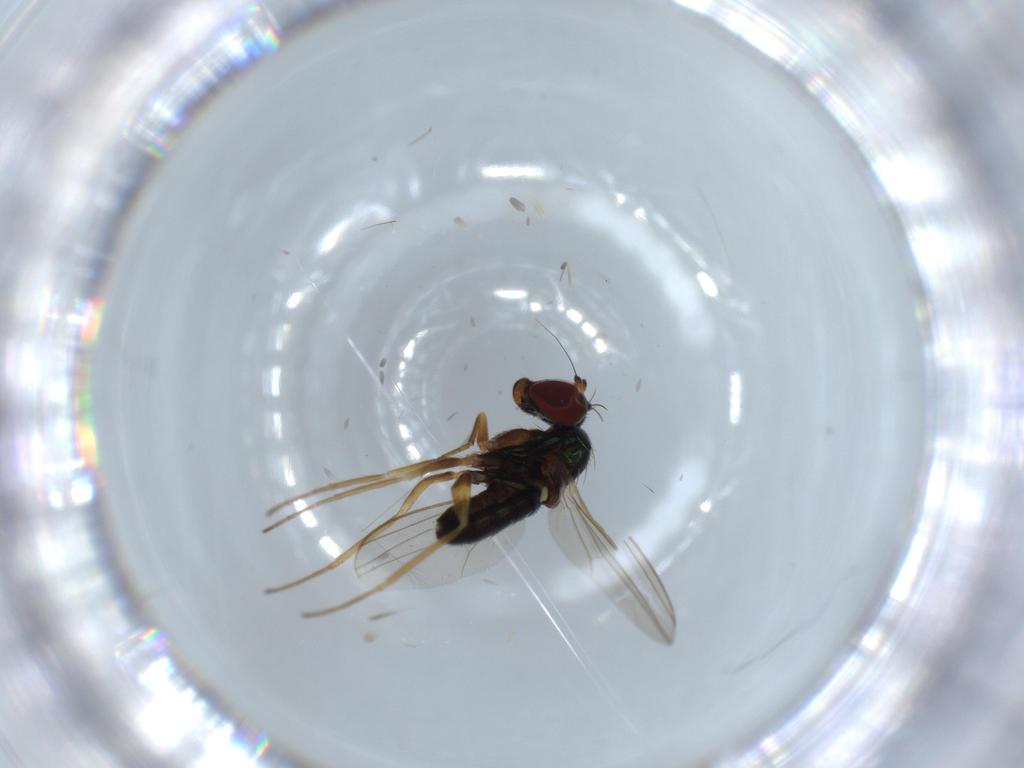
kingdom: Animalia
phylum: Arthropoda
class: Insecta
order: Diptera
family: Dolichopodidae
